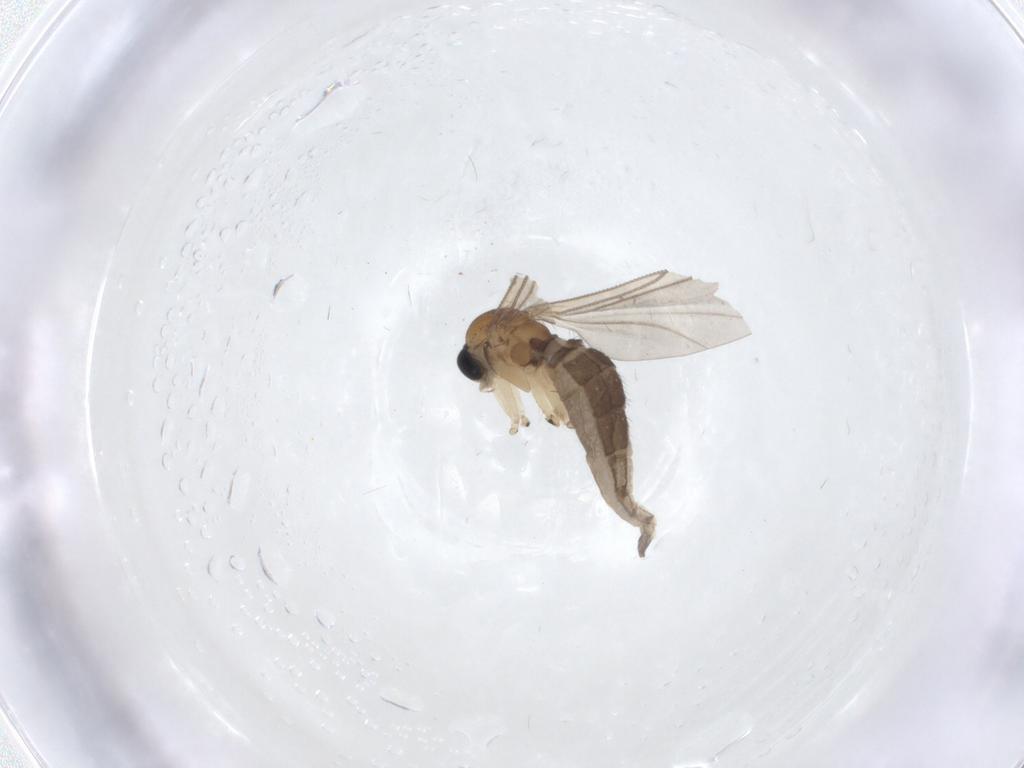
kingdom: Animalia
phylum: Arthropoda
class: Insecta
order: Diptera
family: Sciaridae
